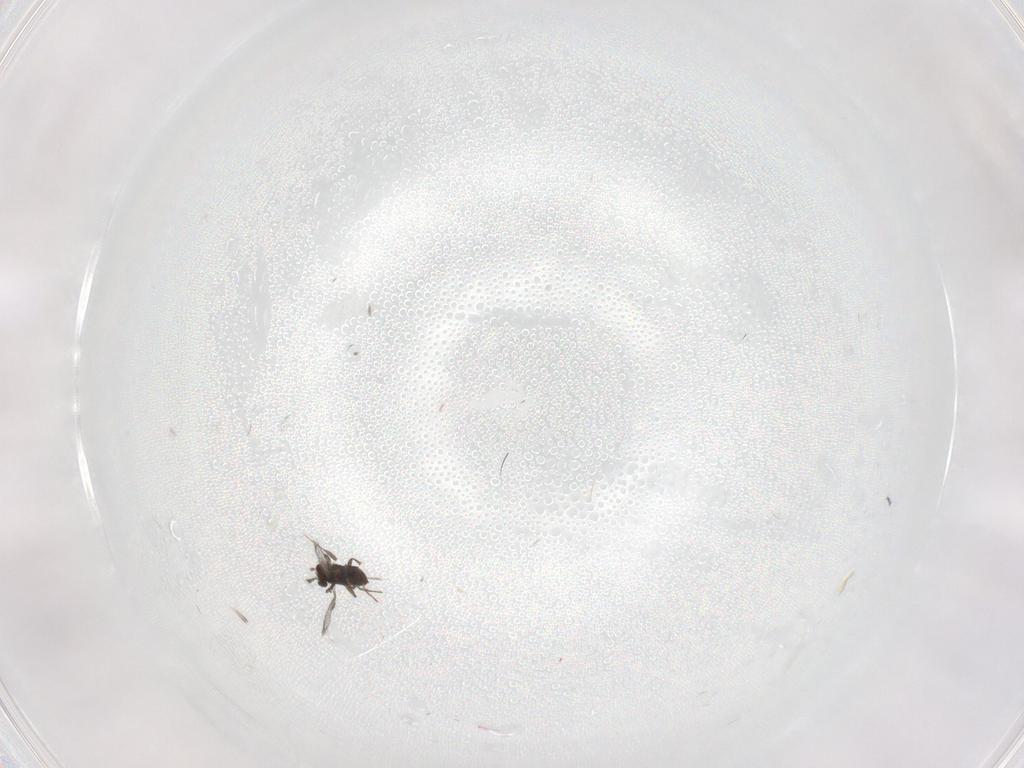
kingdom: Animalia
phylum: Arthropoda
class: Insecta
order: Hymenoptera
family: Trichogrammatidae
